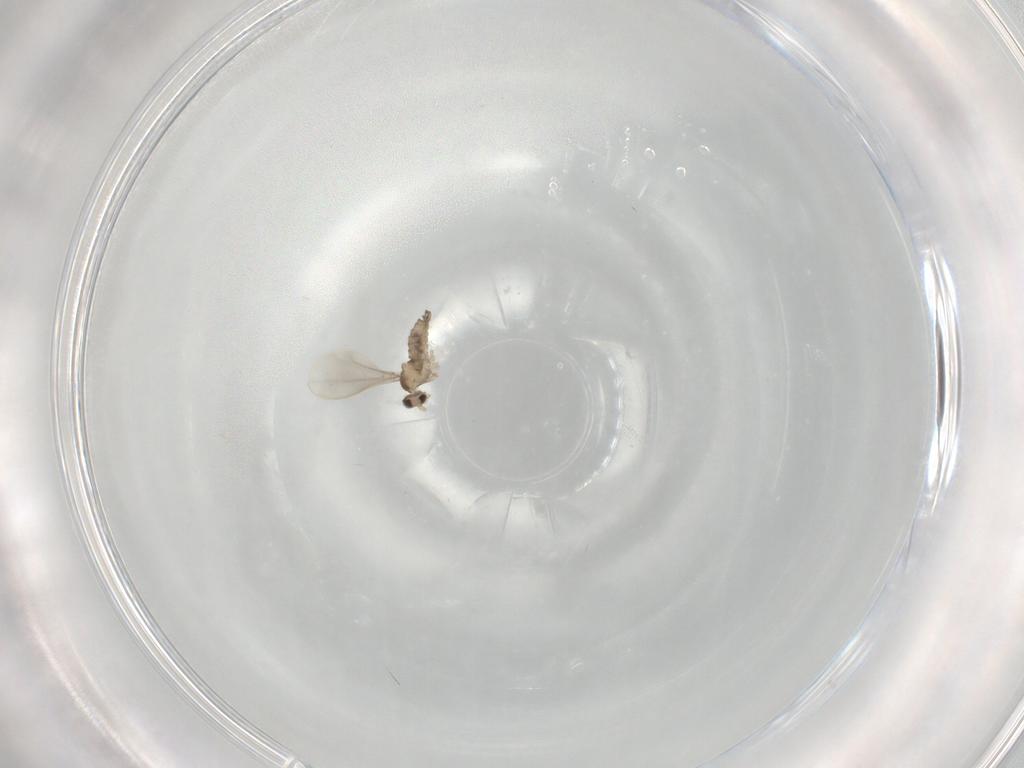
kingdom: Animalia
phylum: Arthropoda
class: Insecta
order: Diptera
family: Cecidomyiidae
